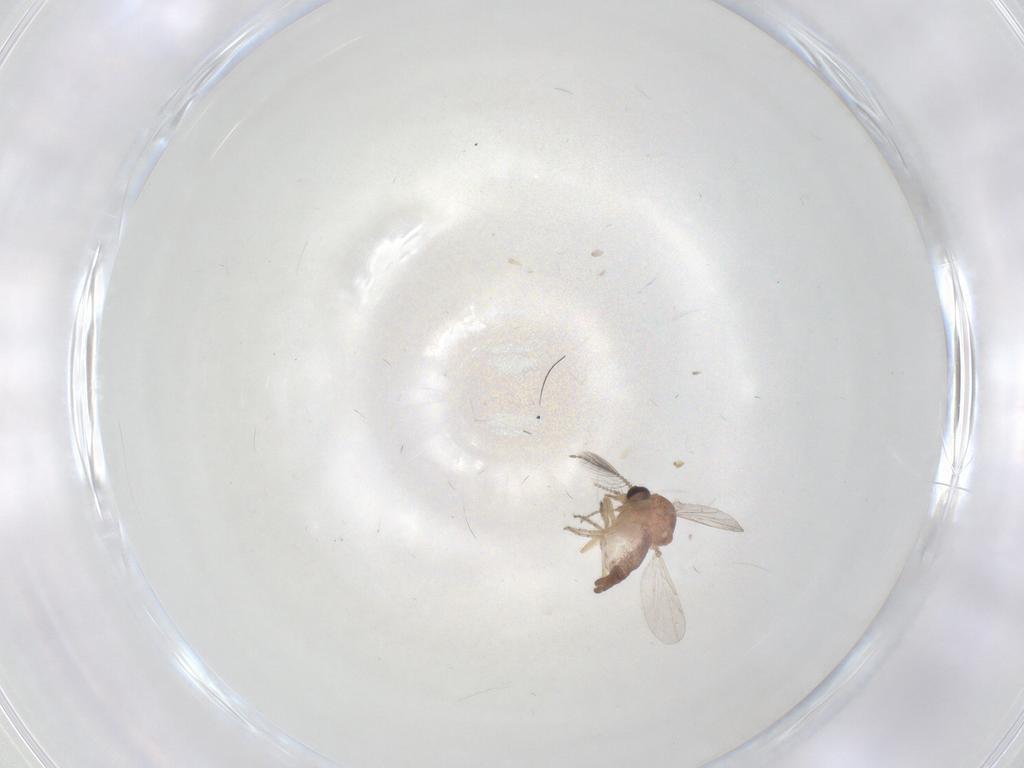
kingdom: Animalia
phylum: Arthropoda
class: Insecta
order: Diptera
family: Ceratopogonidae
